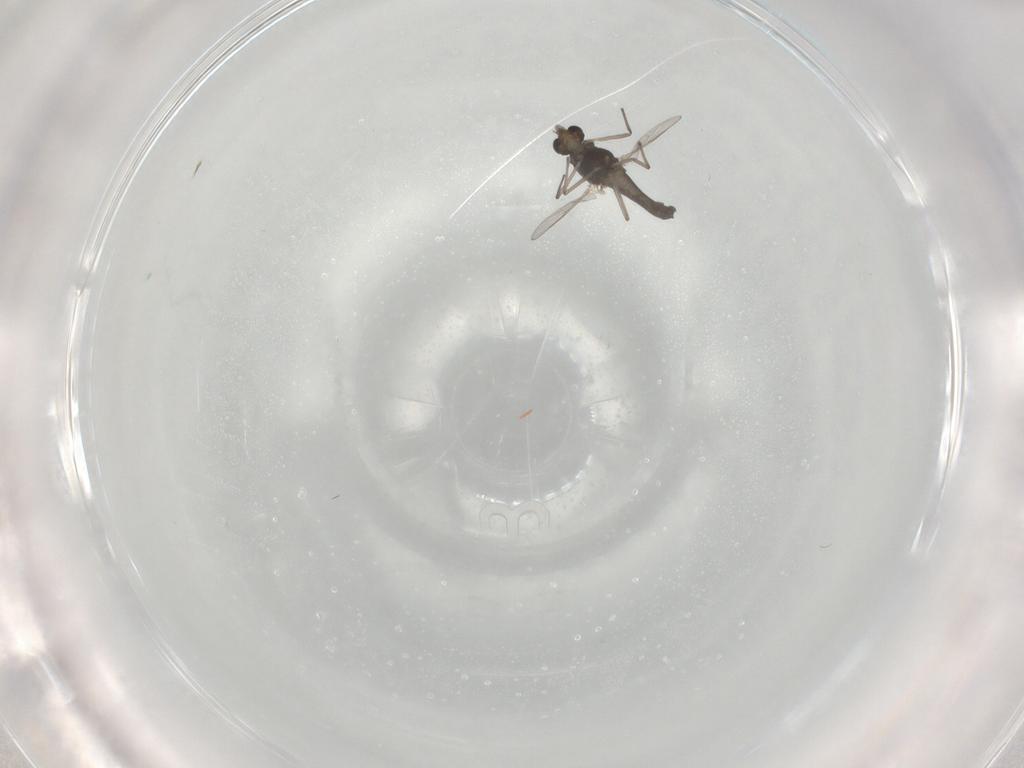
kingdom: Animalia
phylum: Arthropoda
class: Insecta
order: Diptera
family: Chironomidae
